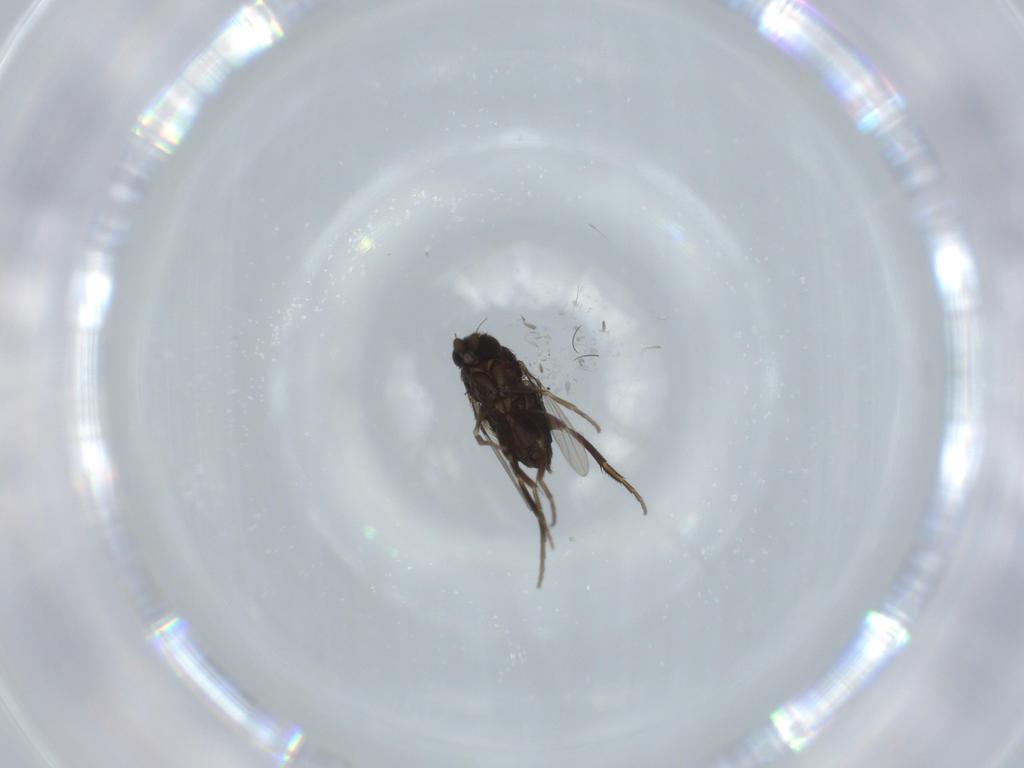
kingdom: Animalia
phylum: Arthropoda
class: Insecta
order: Diptera
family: Phoridae
